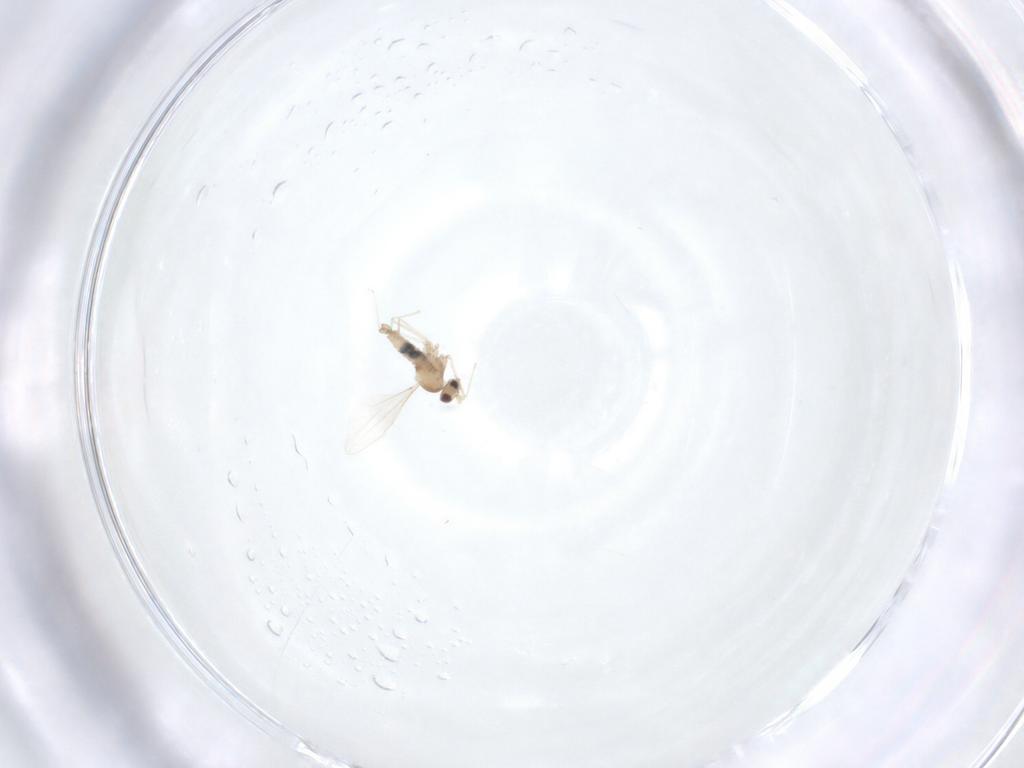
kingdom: Animalia
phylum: Arthropoda
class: Insecta
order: Diptera
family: Cecidomyiidae
